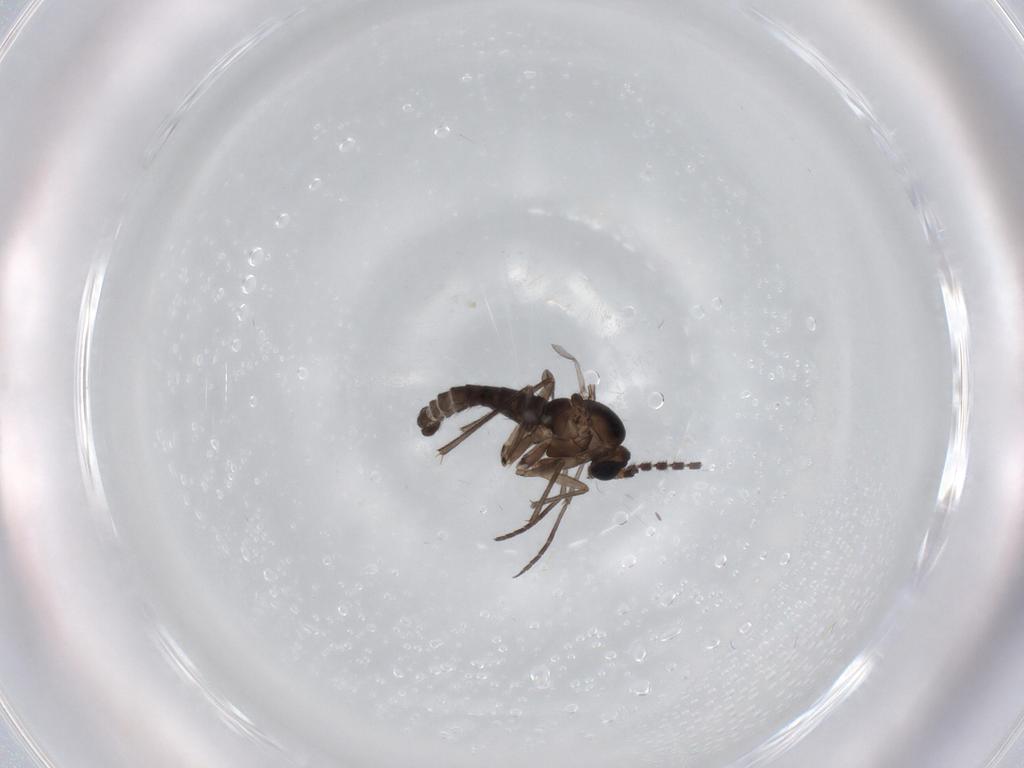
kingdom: Animalia
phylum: Arthropoda
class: Insecta
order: Diptera
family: Sciaridae
